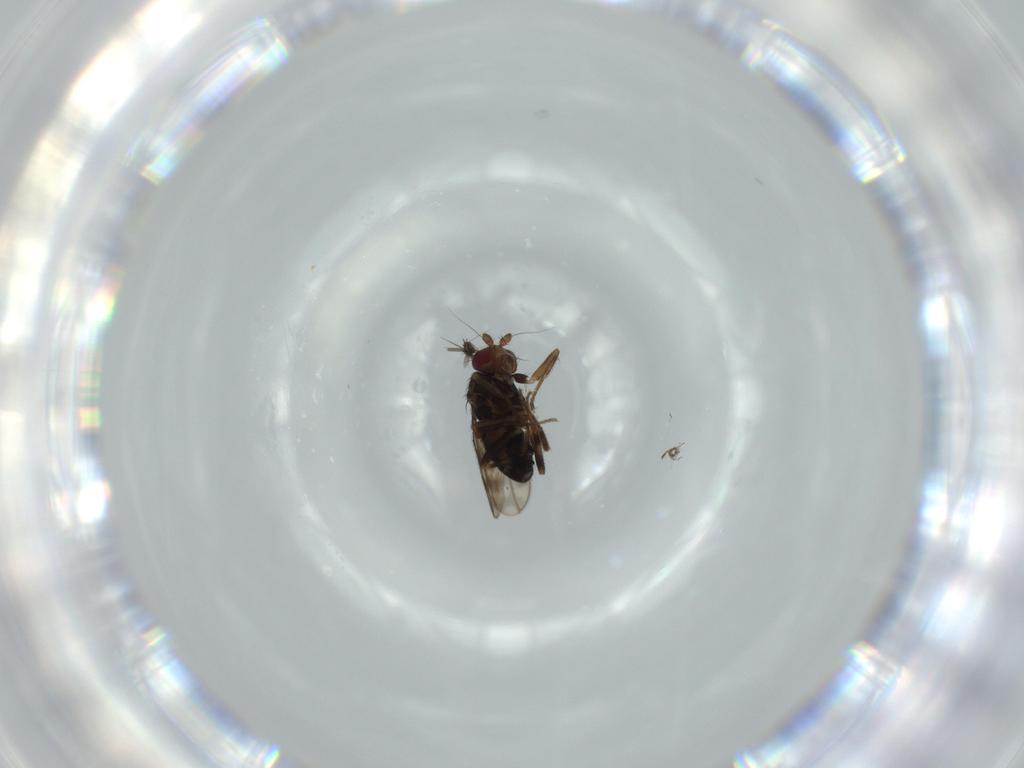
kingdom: Animalia
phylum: Arthropoda
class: Insecta
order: Diptera
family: Sphaeroceridae
